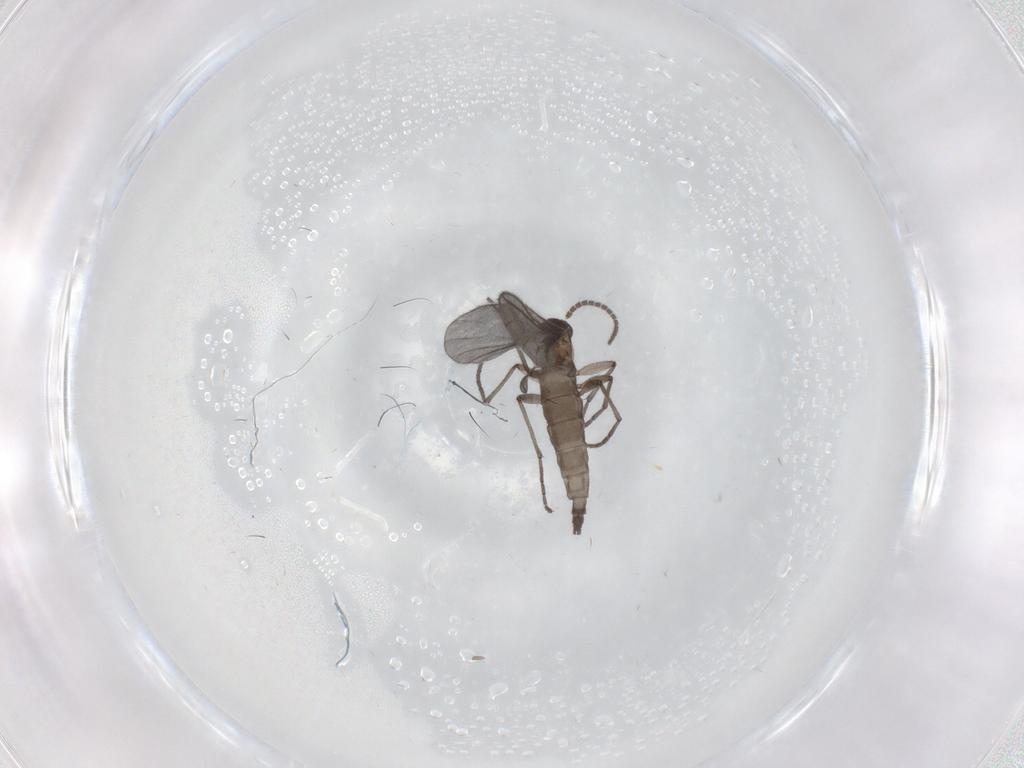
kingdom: Animalia
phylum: Arthropoda
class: Insecta
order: Diptera
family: Sciaridae
